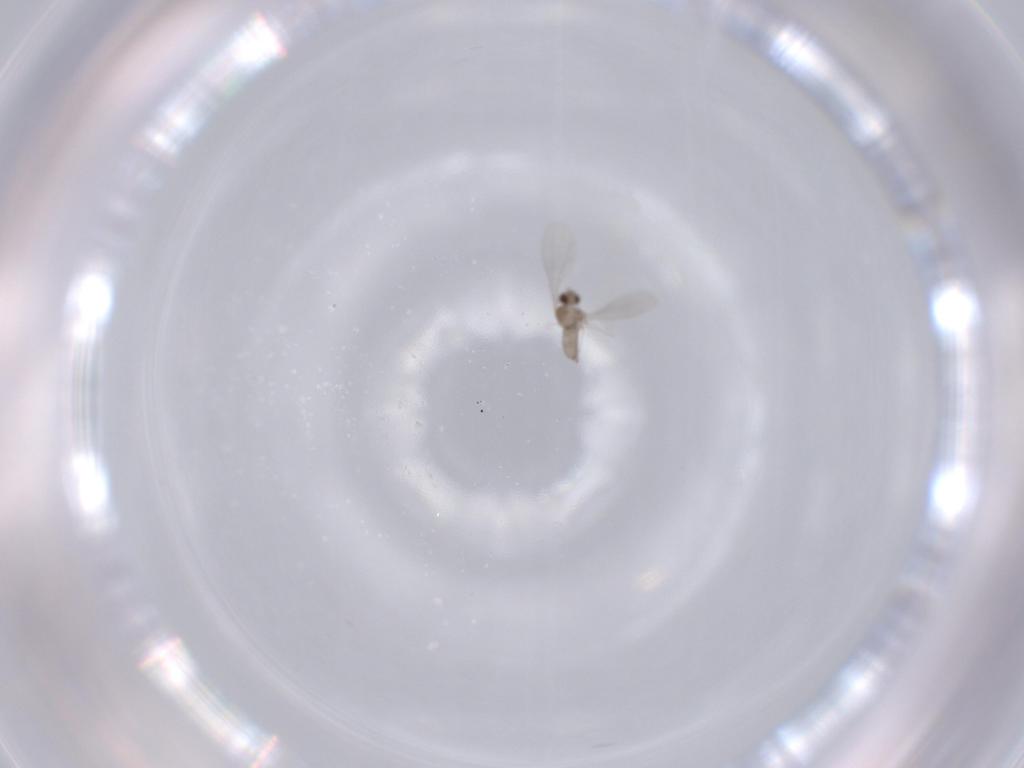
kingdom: Animalia
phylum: Arthropoda
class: Insecta
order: Diptera
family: Cecidomyiidae
